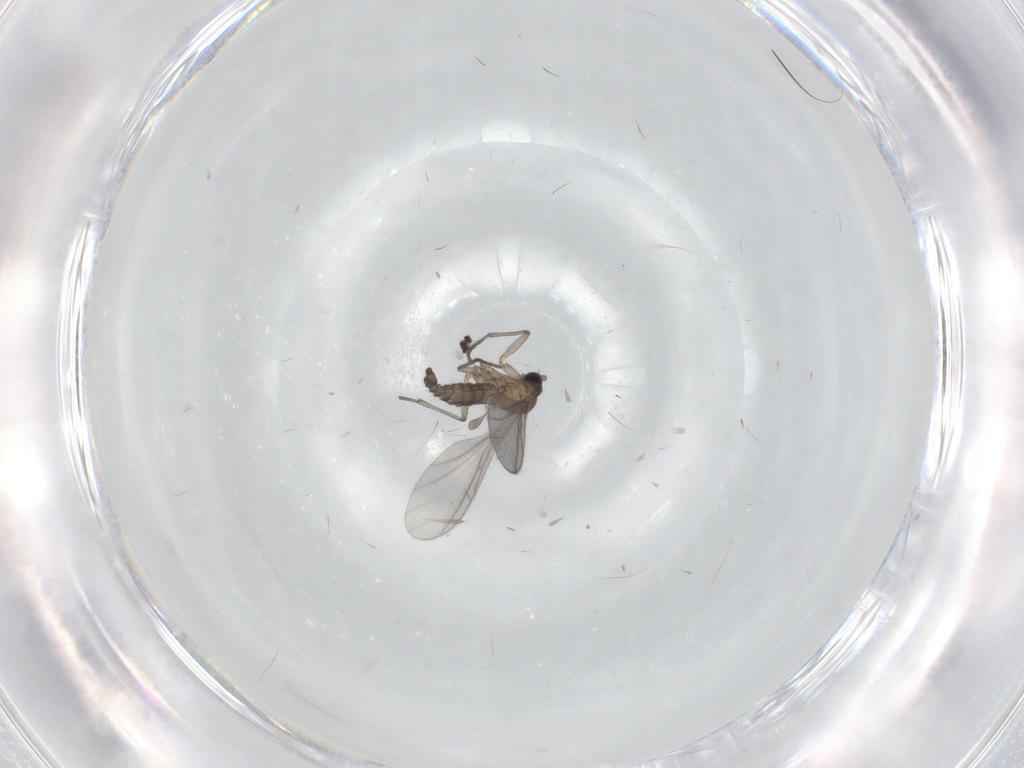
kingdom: Animalia
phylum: Arthropoda
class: Insecta
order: Diptera
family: Sciaridae
